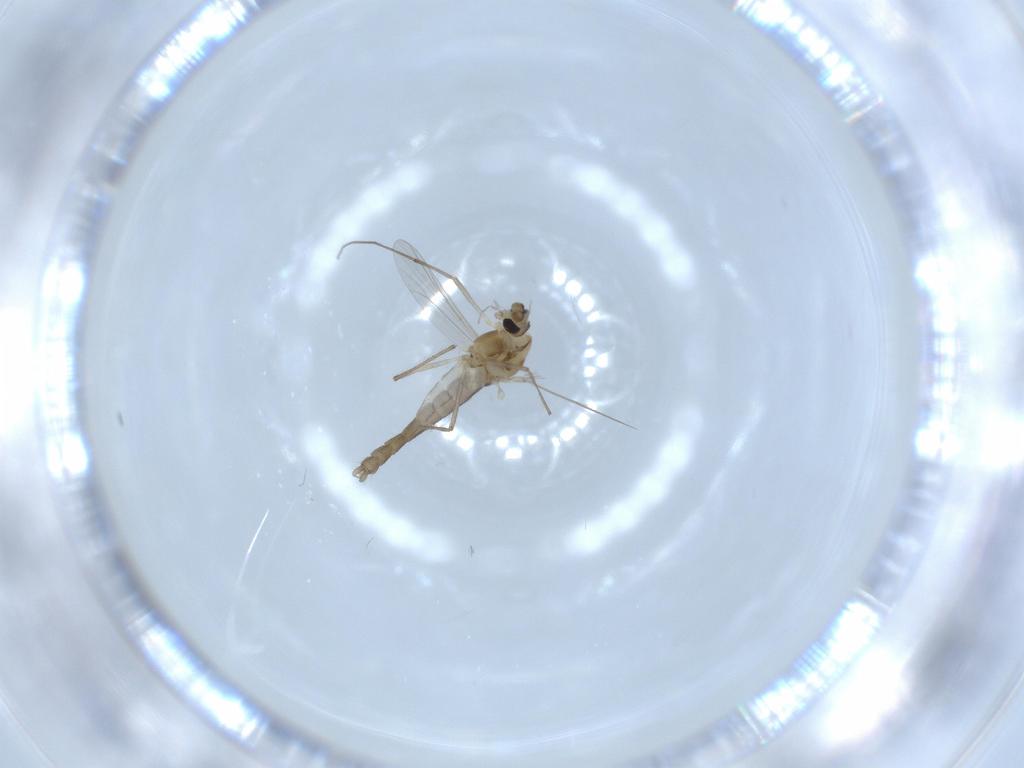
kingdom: Animalia
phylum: Arthropoda
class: Insecta
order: Diptera
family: Chironomidae
